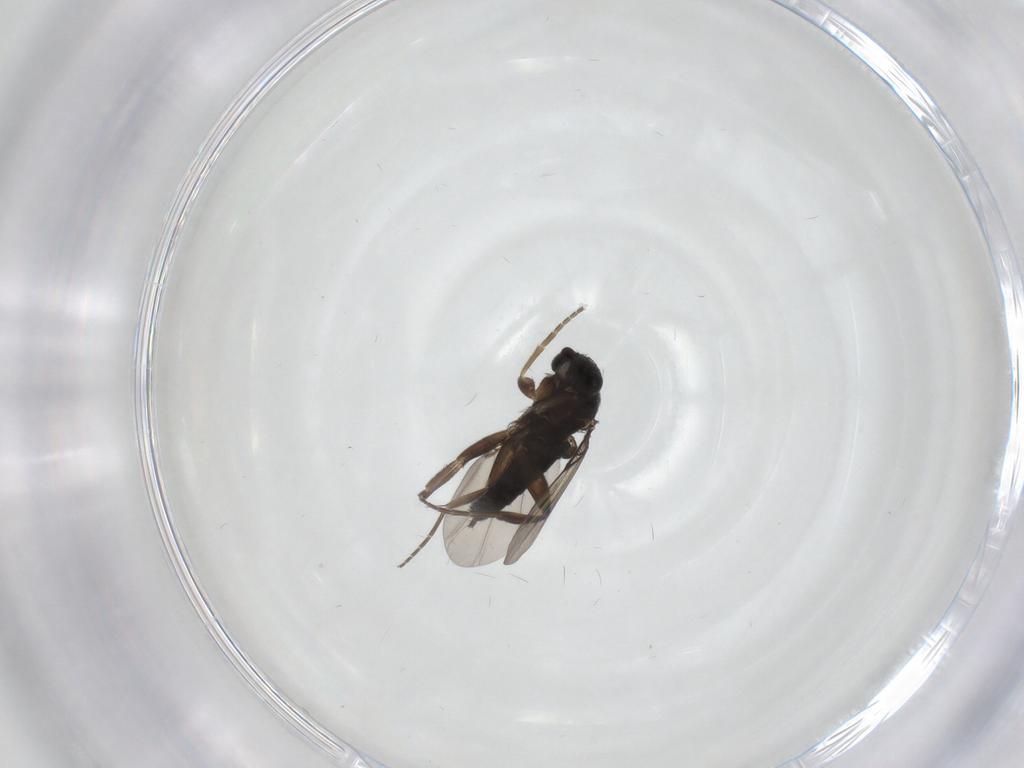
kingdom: Animalia
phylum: Arthropoda
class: Insecta
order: Diptera
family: Phoridae
